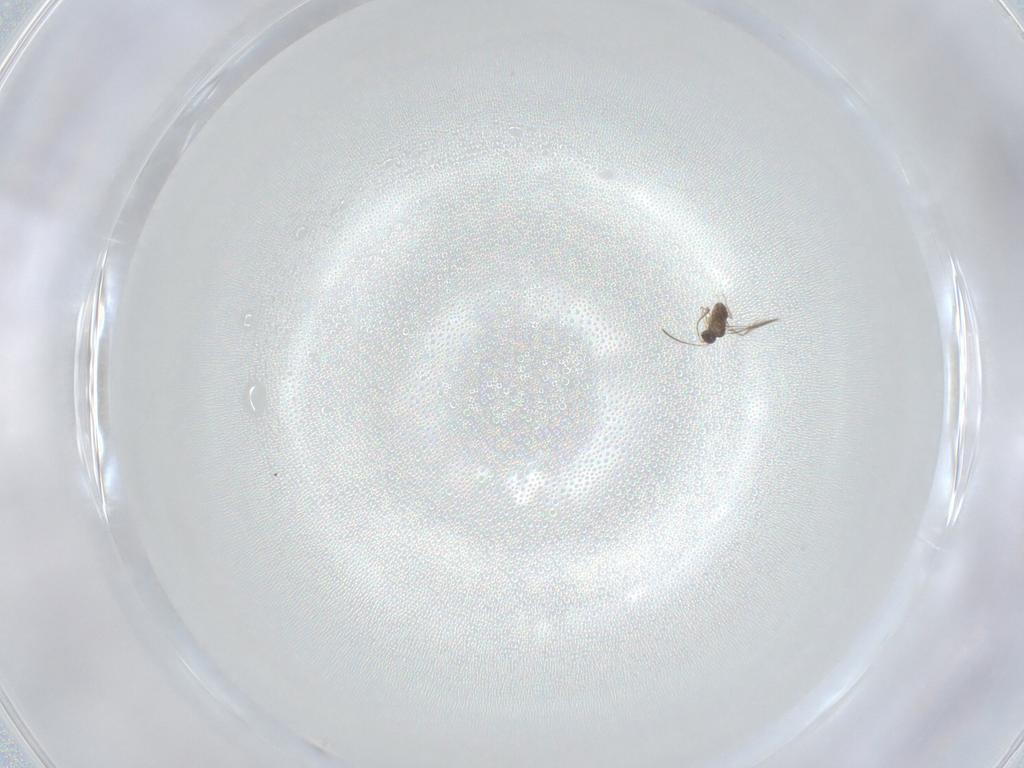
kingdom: Animalia
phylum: Arthropoda
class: Insecta
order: Hymenoptera
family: Mymaridae
